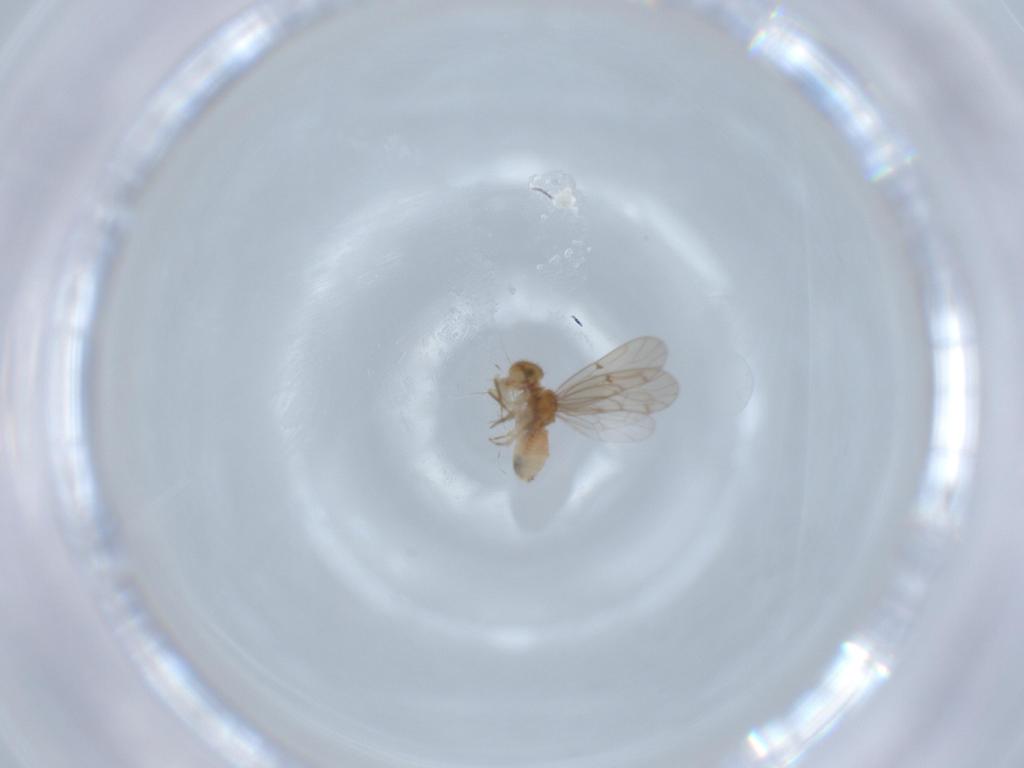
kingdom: Animalia
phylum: Arthropoda
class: Insecta
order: Psocodea
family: Ectopsocidae
